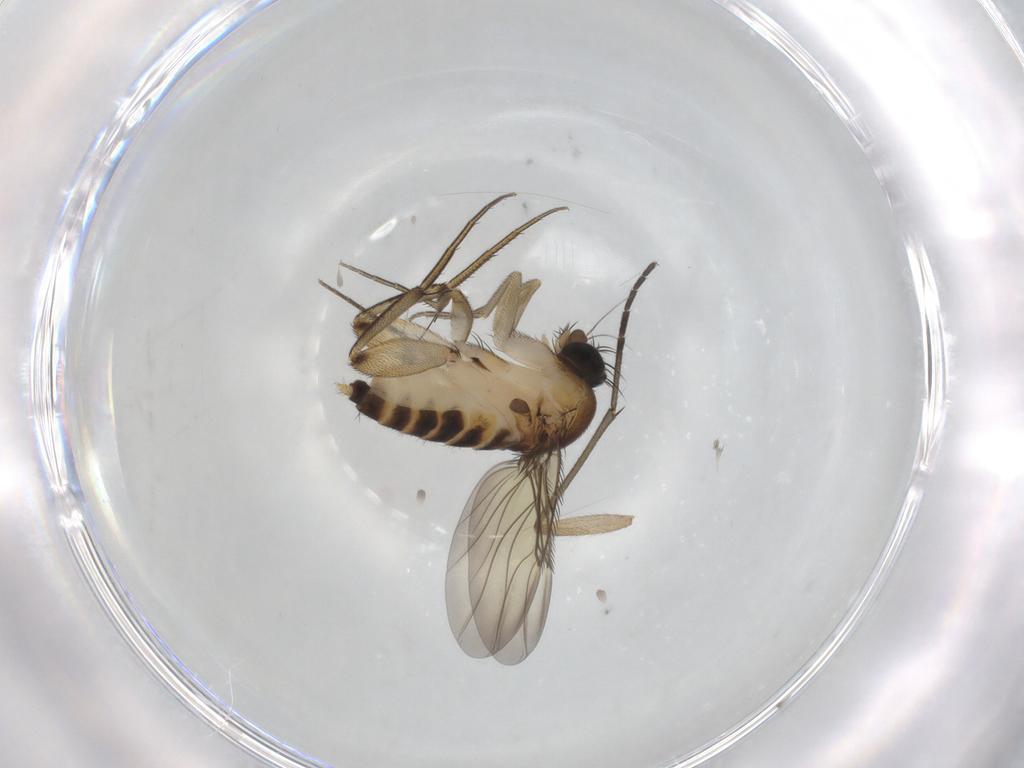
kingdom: Animalia
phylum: Arthropoda
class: Insecta
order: Diptera
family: Phoridae
